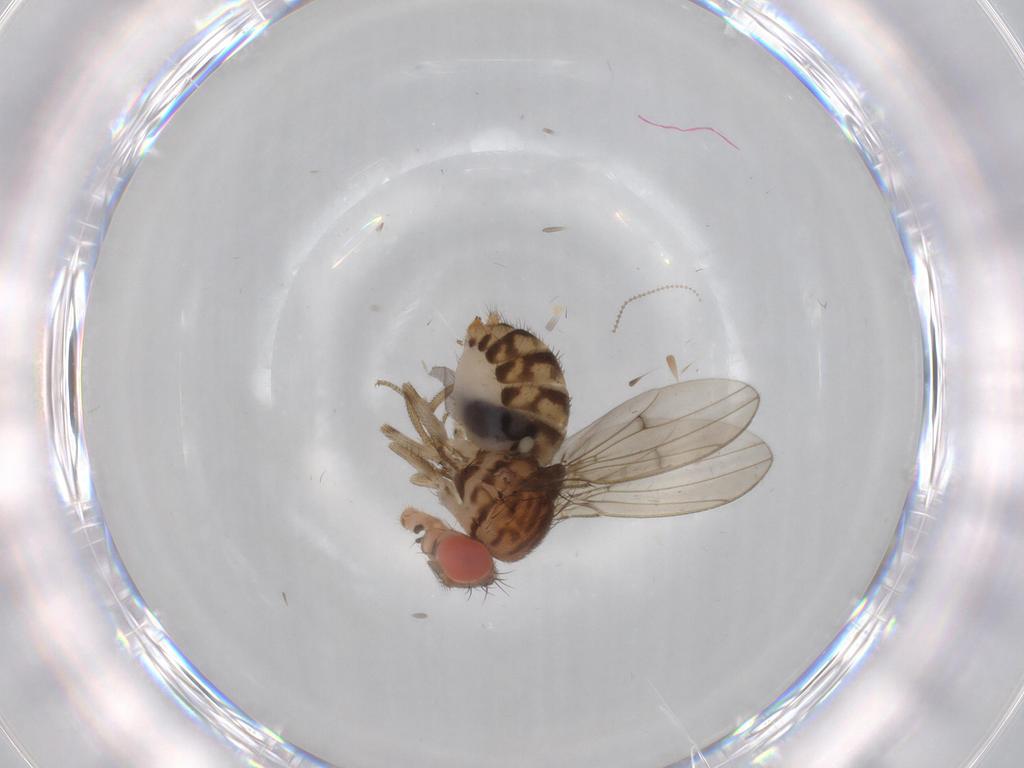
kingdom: Animalia
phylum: Arthropoda
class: Insecta
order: Diptera
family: Drosophilidae
